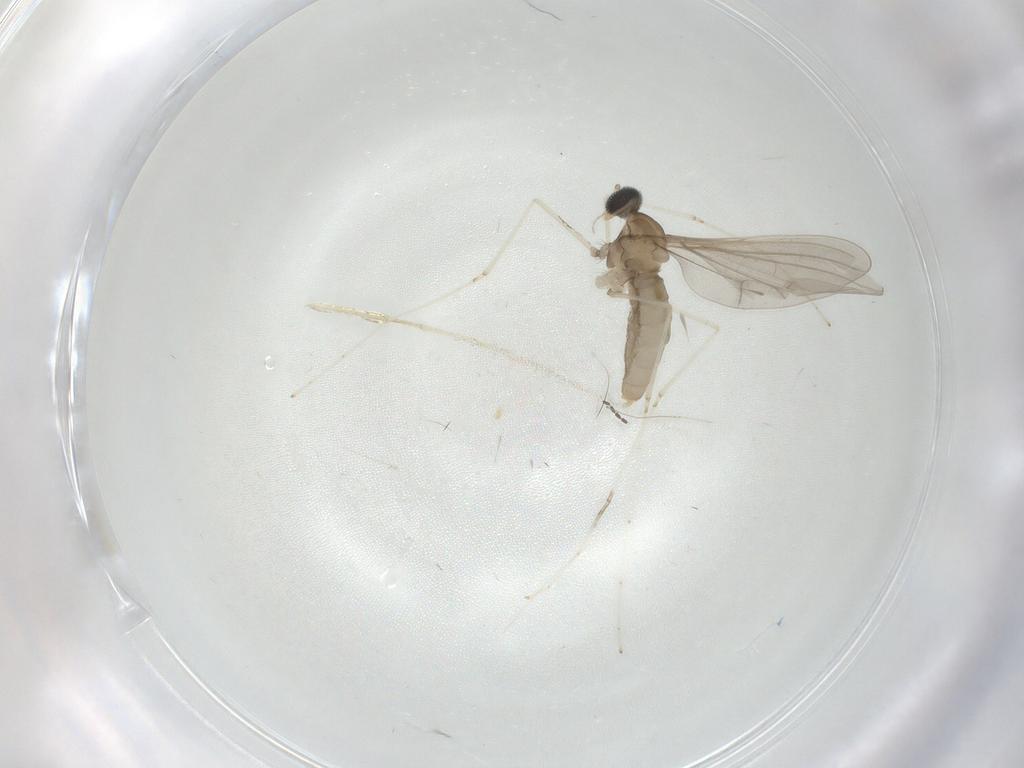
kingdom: Animalia
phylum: Arthropoda
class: Insecta
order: Diptera
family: Cecidomyiidae
